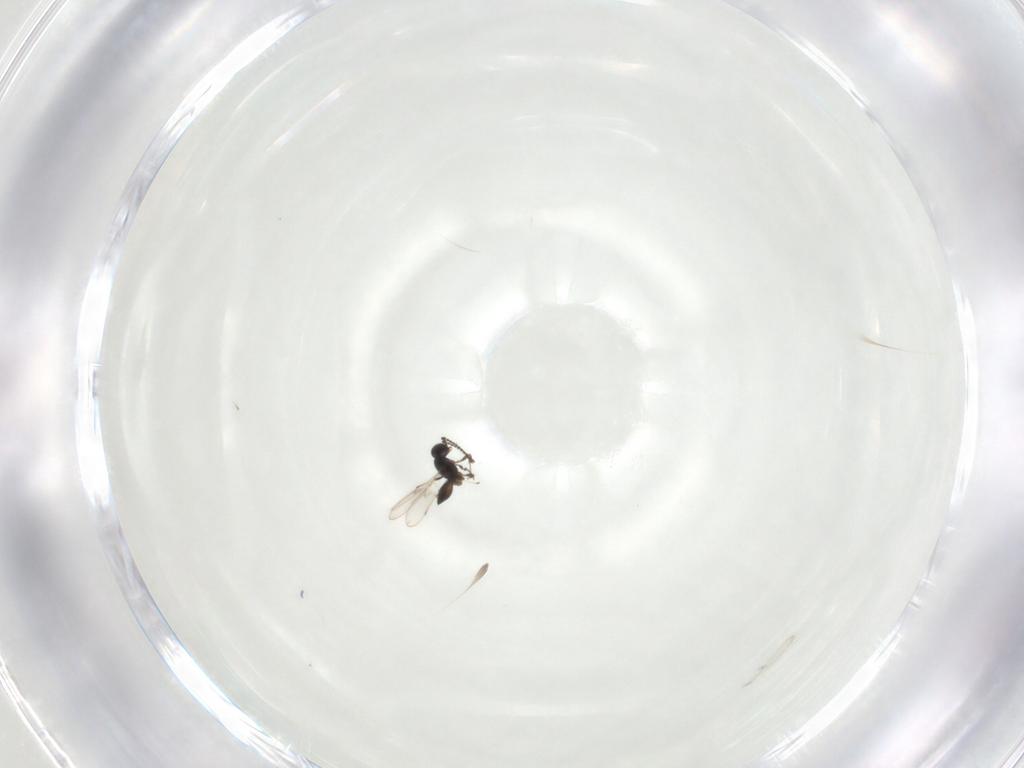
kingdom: Animalia
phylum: Arthropoda
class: Insecta
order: Hymenoptera
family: Scelionidae
